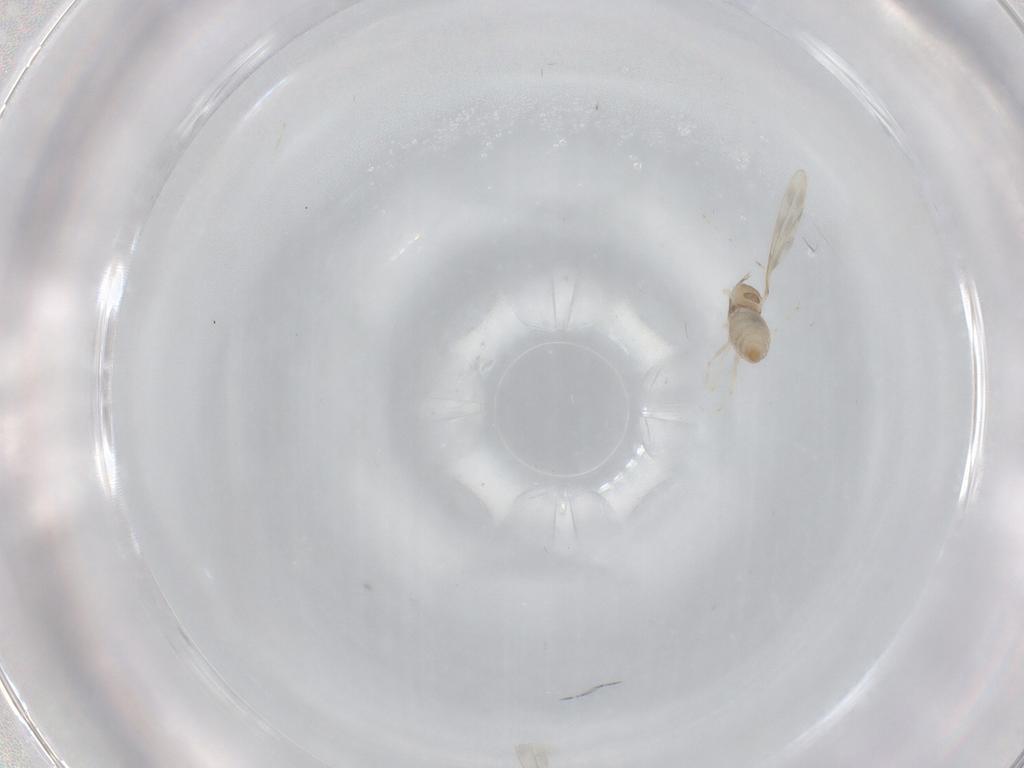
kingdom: Animalia
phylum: Arthropoda
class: Insecta
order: Diptera
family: Cecidomyiidae
